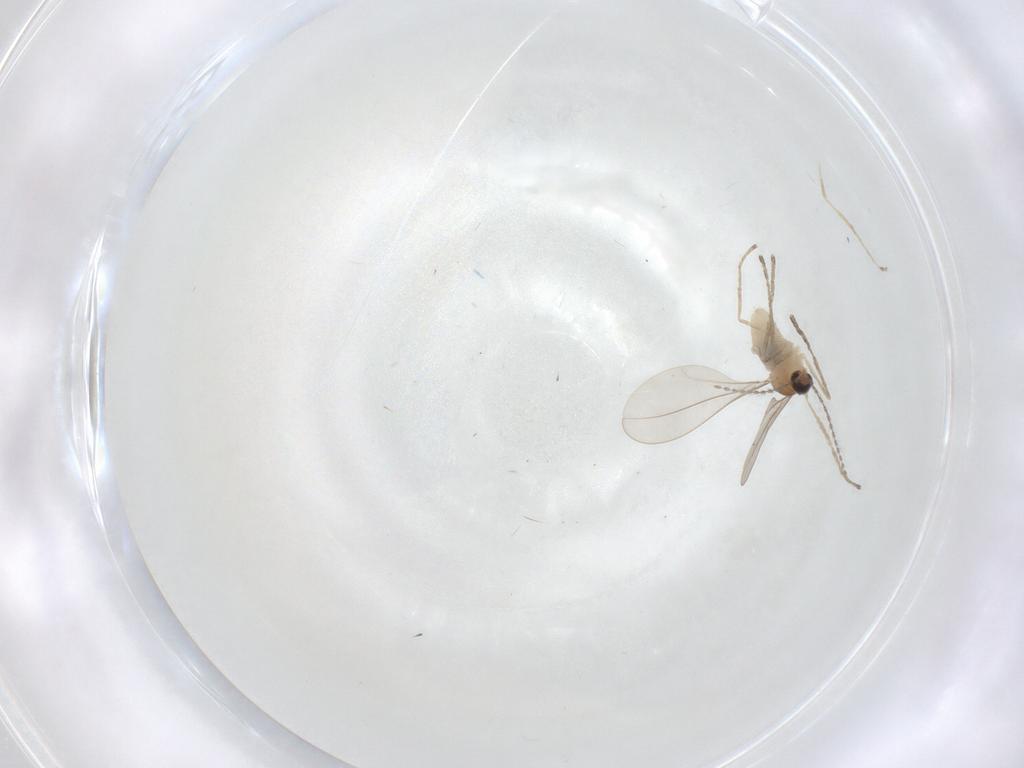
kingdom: Animalia
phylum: Arthropoda
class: Insecta
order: Diptera
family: Cecidomyiidae
